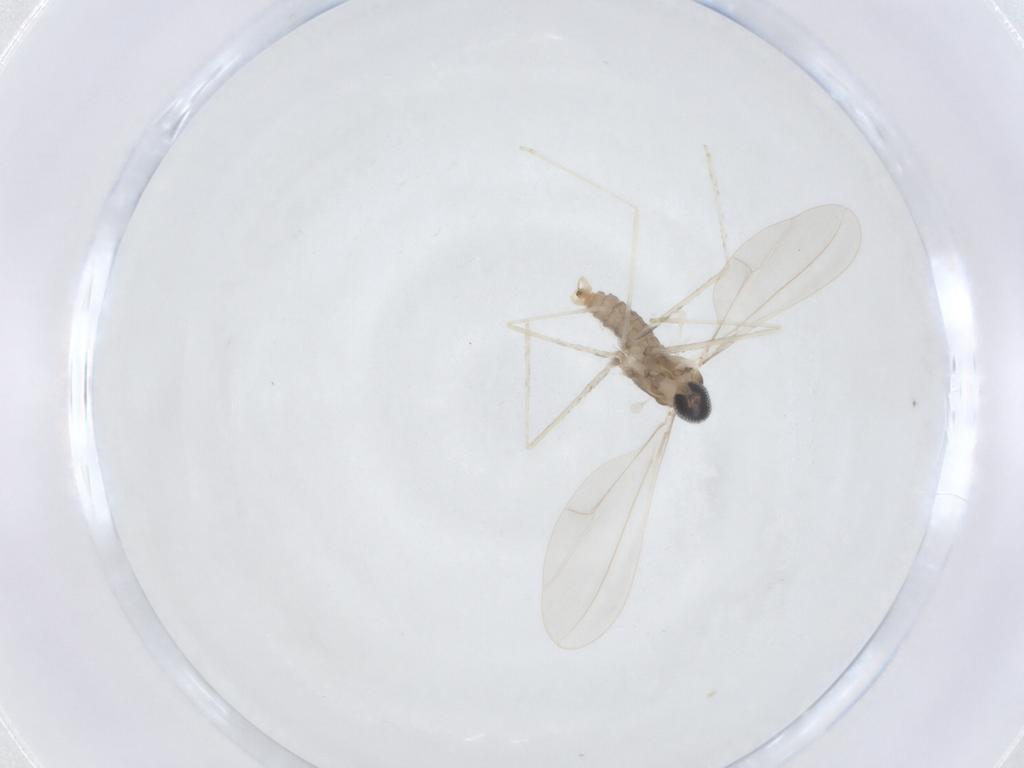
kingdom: Animalia
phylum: Arthropoda
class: Insecta
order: Diptera
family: Cecidomyiidae
